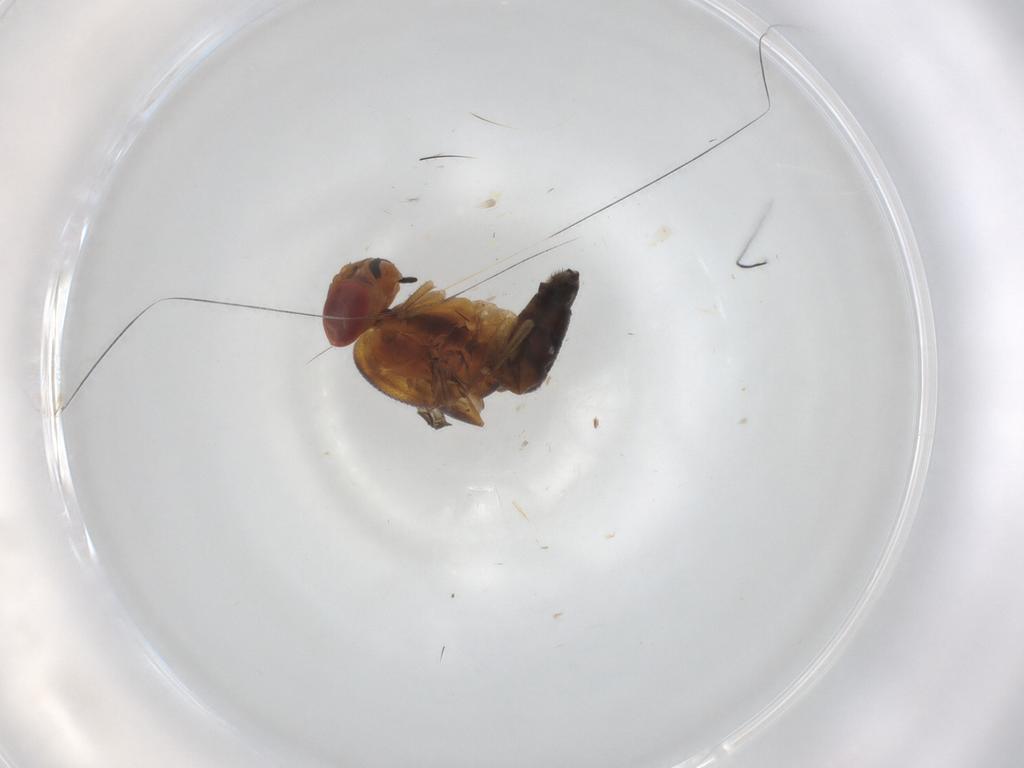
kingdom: Animalia
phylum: Arthropoda
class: Insecta
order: Diptera
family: Drosophilidae
